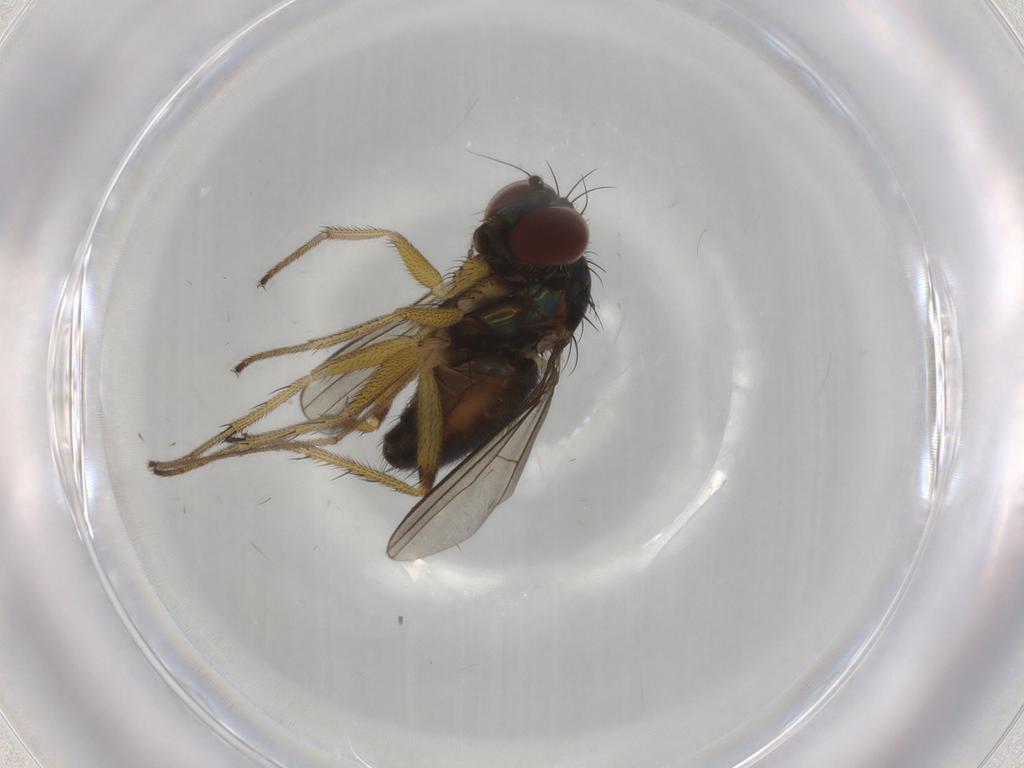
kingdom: Animalia
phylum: Arthropoda
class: Insecta
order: Diptera
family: Dolichopodidae
